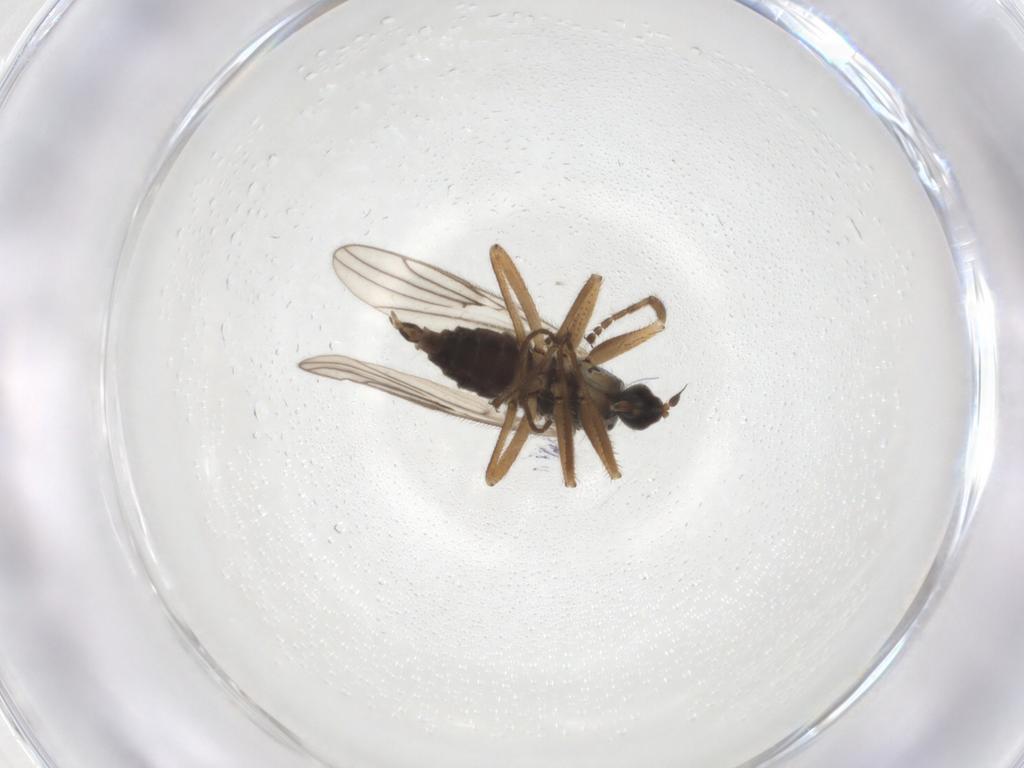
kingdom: Animalia
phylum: Arthropoda
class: Insecta
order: Diptera
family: Hybotidae
